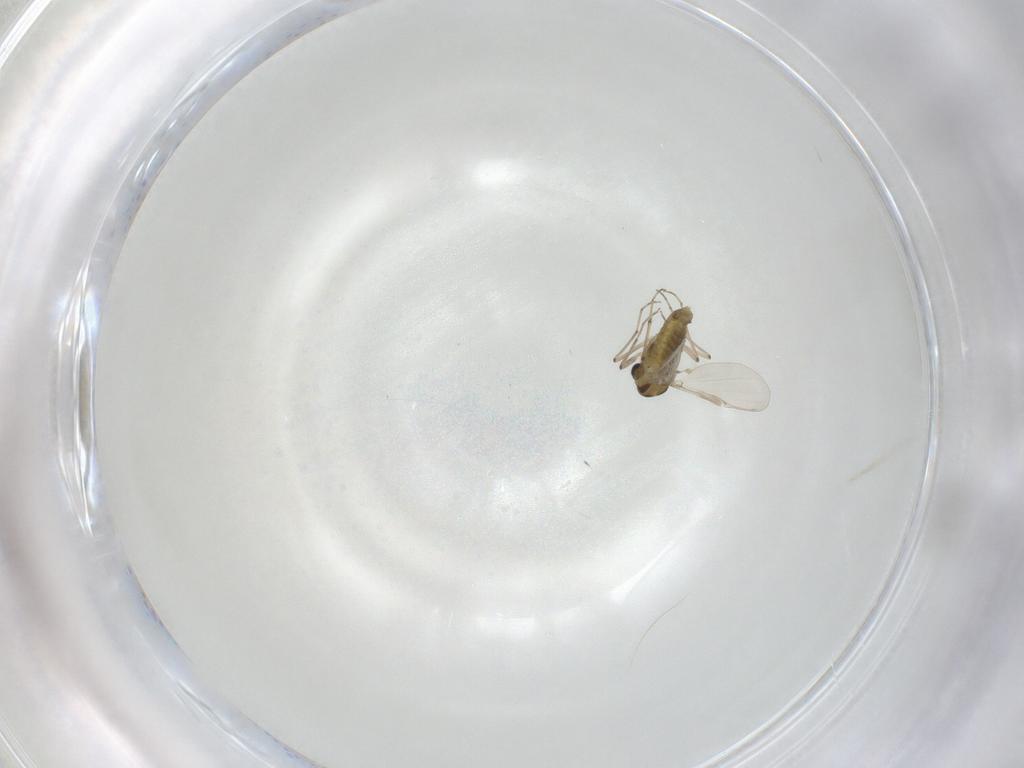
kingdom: Animalia
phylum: Arthropoda
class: Insecta
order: Diptera
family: Chironomidae
